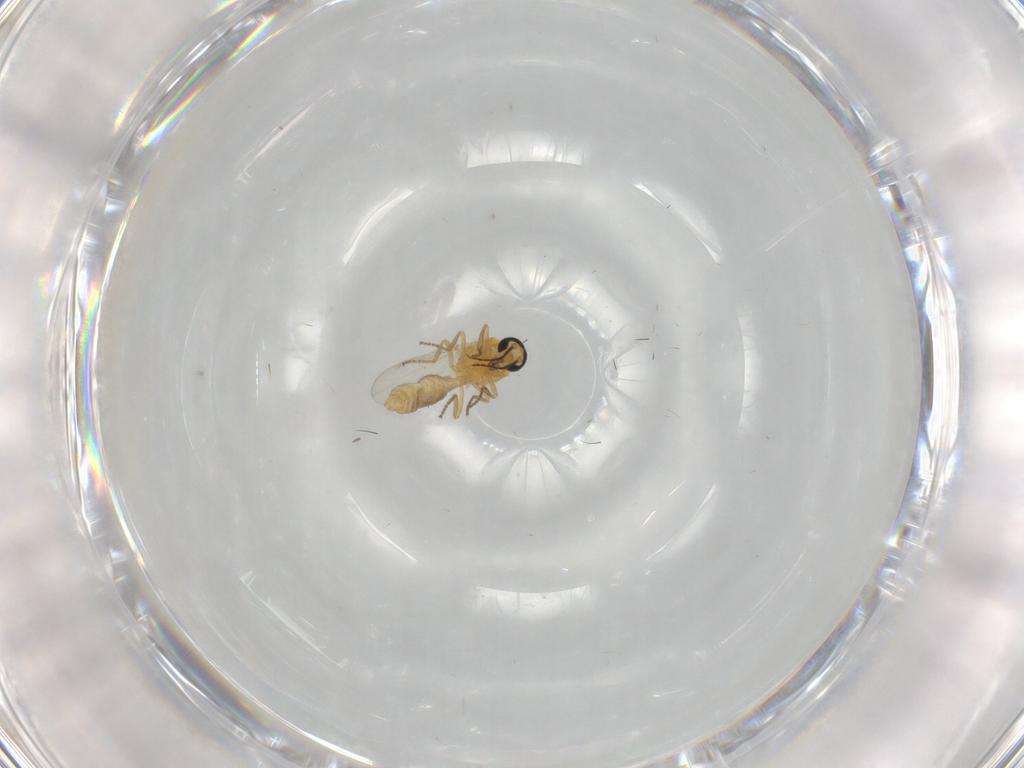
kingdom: Animalia
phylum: Arthropoda
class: Insecta
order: Diptera
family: Ceratopogonidae
